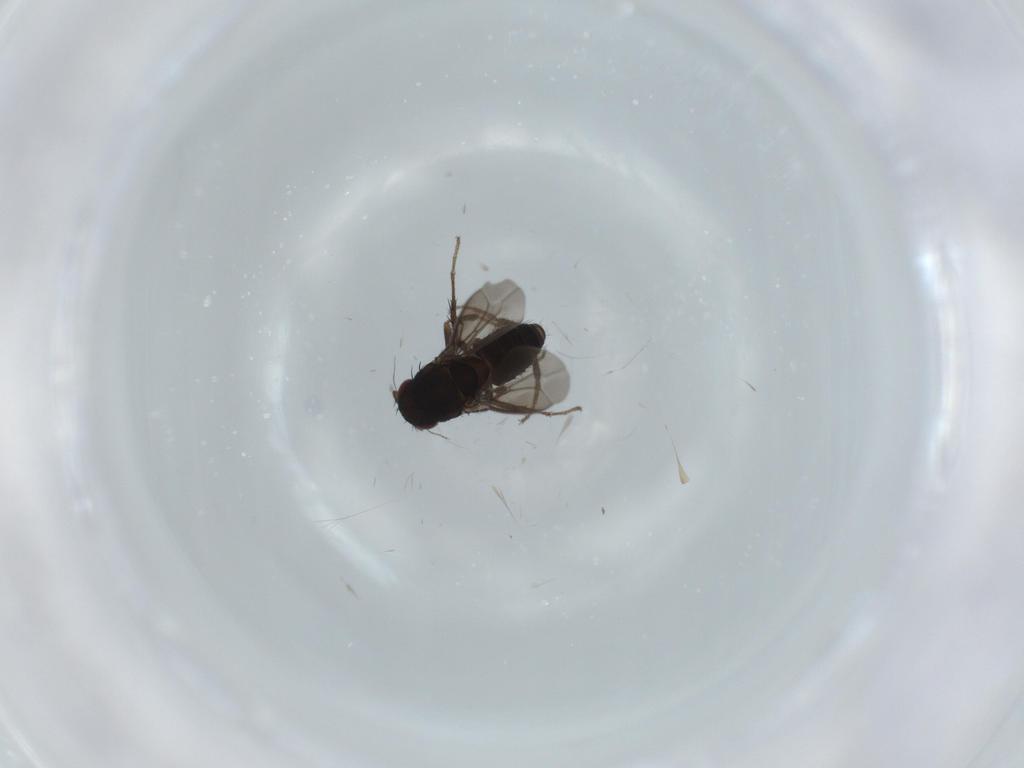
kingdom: Animalia
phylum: Arthropoda
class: Insecta
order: Diptera
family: Sphaeroceridae
